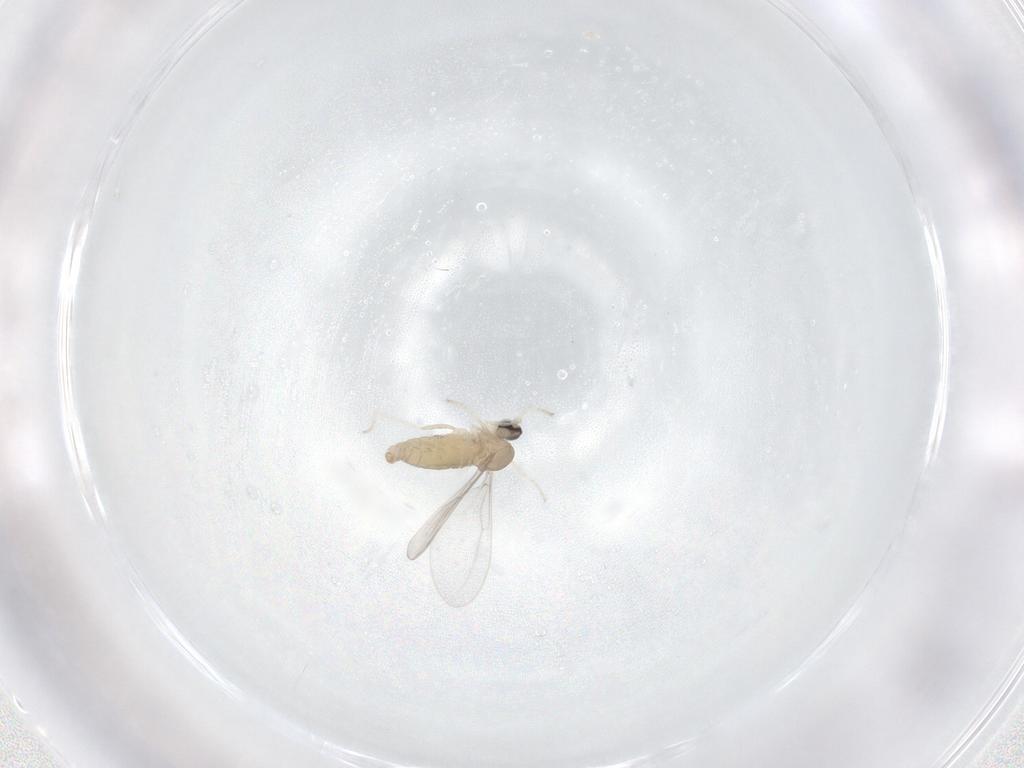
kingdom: Animalia
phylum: Arthropoda
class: Insecta
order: Diptera
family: Cecidomyiidae
